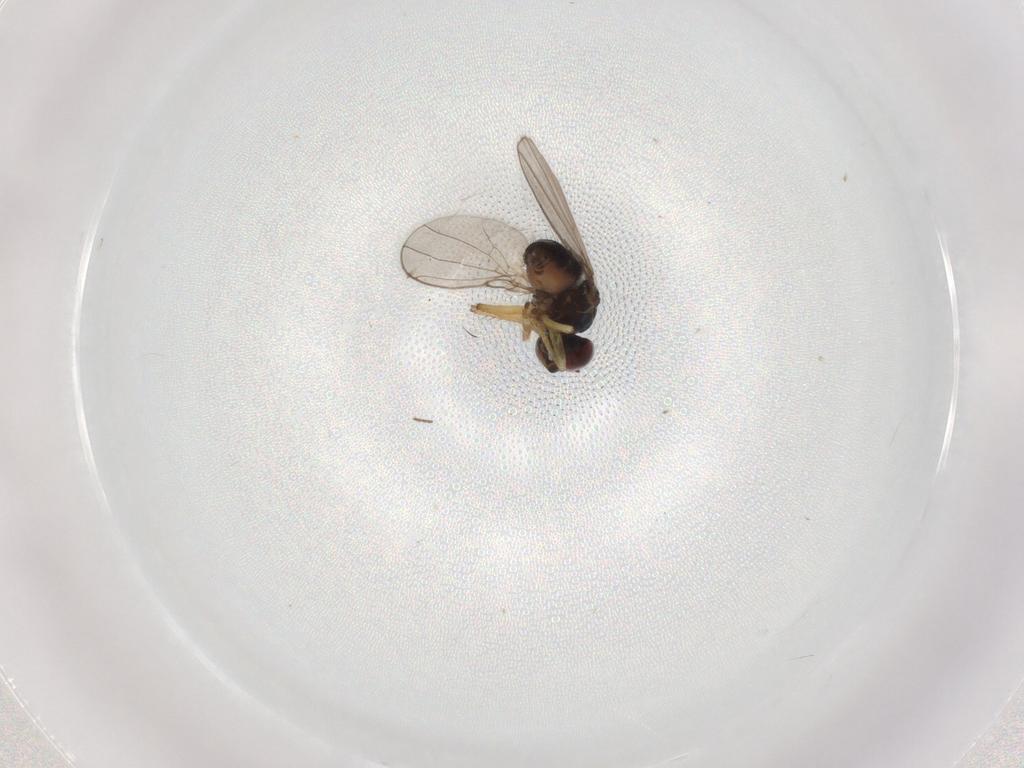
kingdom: Animalia
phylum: Arthropoda
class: Insecta
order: Diptera
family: Ephydridae
